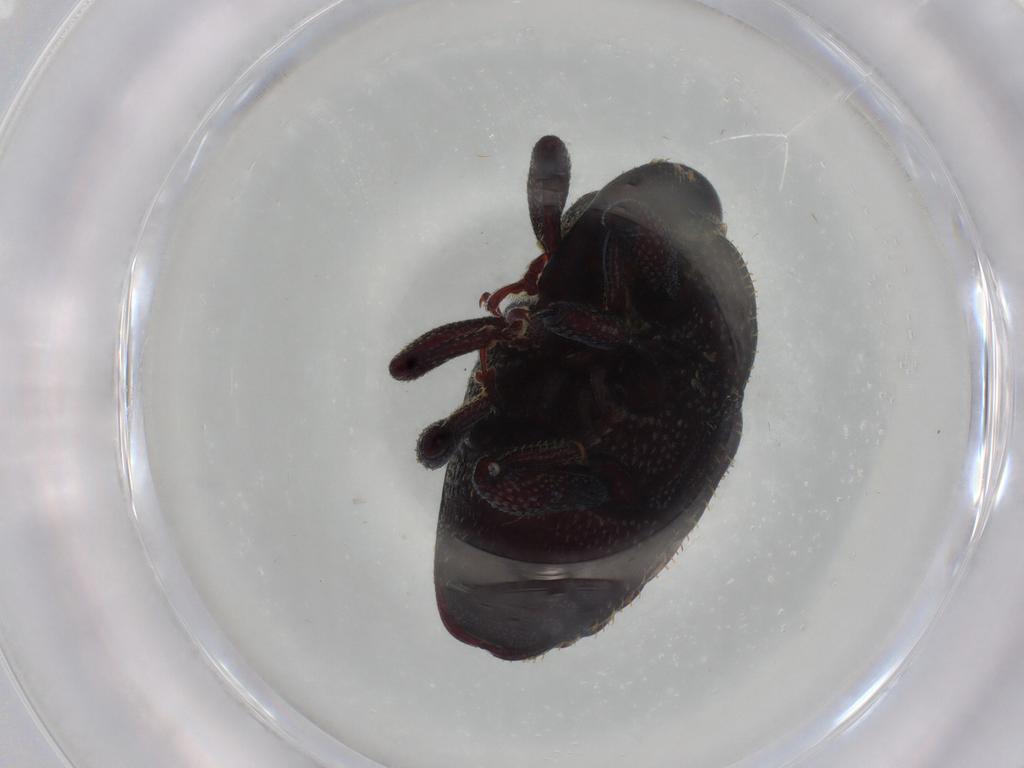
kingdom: Animalia
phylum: Arthropoda
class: Insecta
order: Coleoptera
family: Curculionidae
